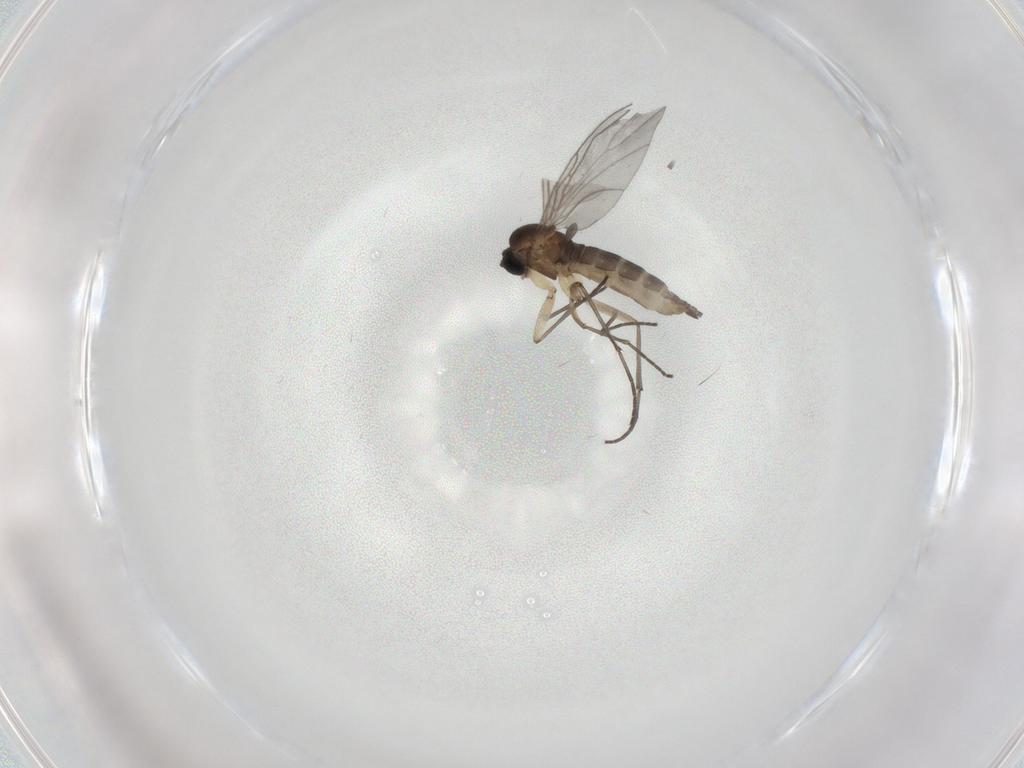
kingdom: Animalia
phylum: Arthropoda
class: Insecta
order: Diptera
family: Sciaridae
